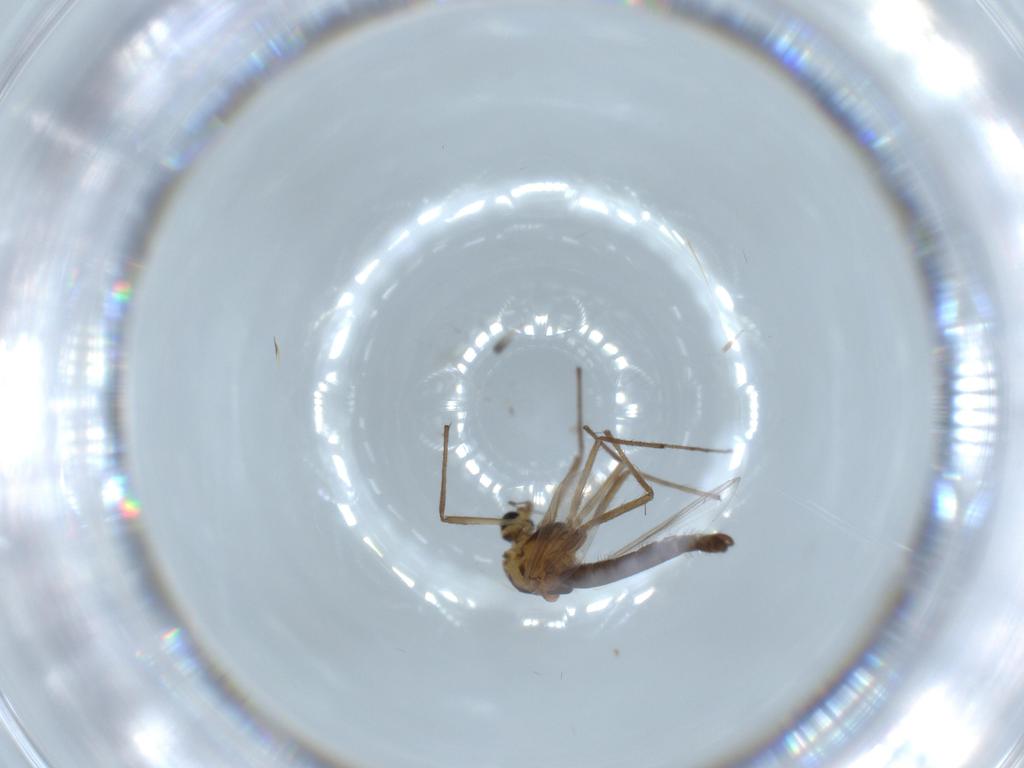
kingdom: Animalia
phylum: Arthropoda
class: Insecta
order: Diptera
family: Chironomidae
